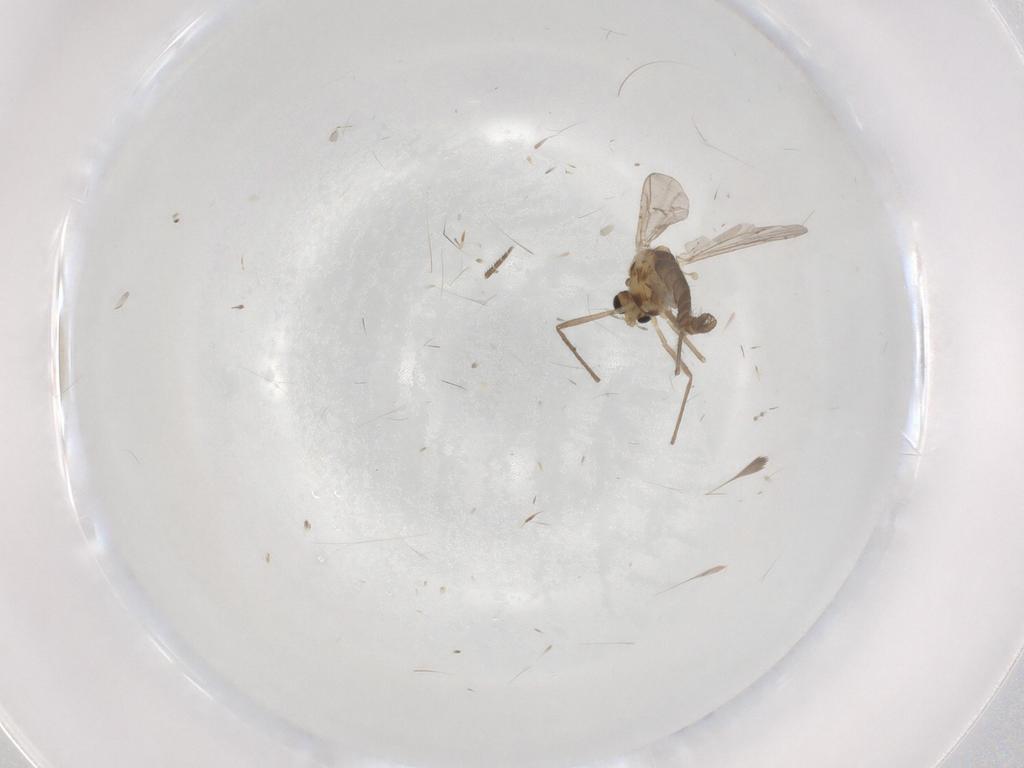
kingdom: Animalia
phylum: Arthropoda
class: Insecta
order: Diptera
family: Chironomidae
